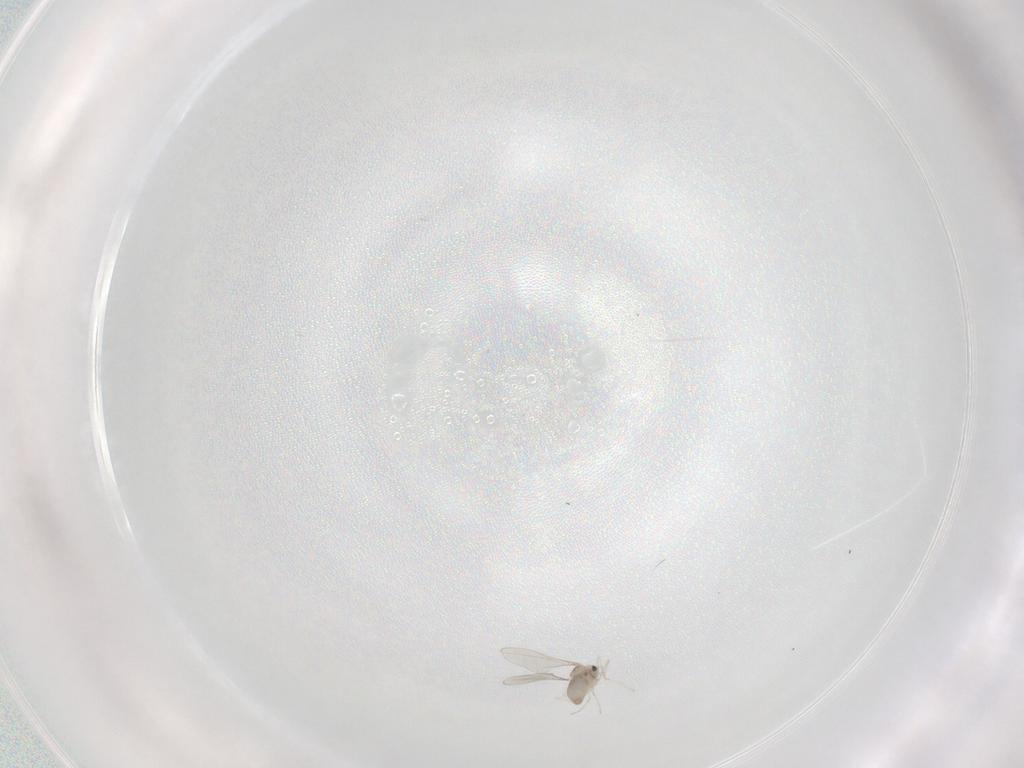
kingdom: Animalia
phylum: Arthropoda
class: Insecta
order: Diptera
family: Cecidomyiidae
